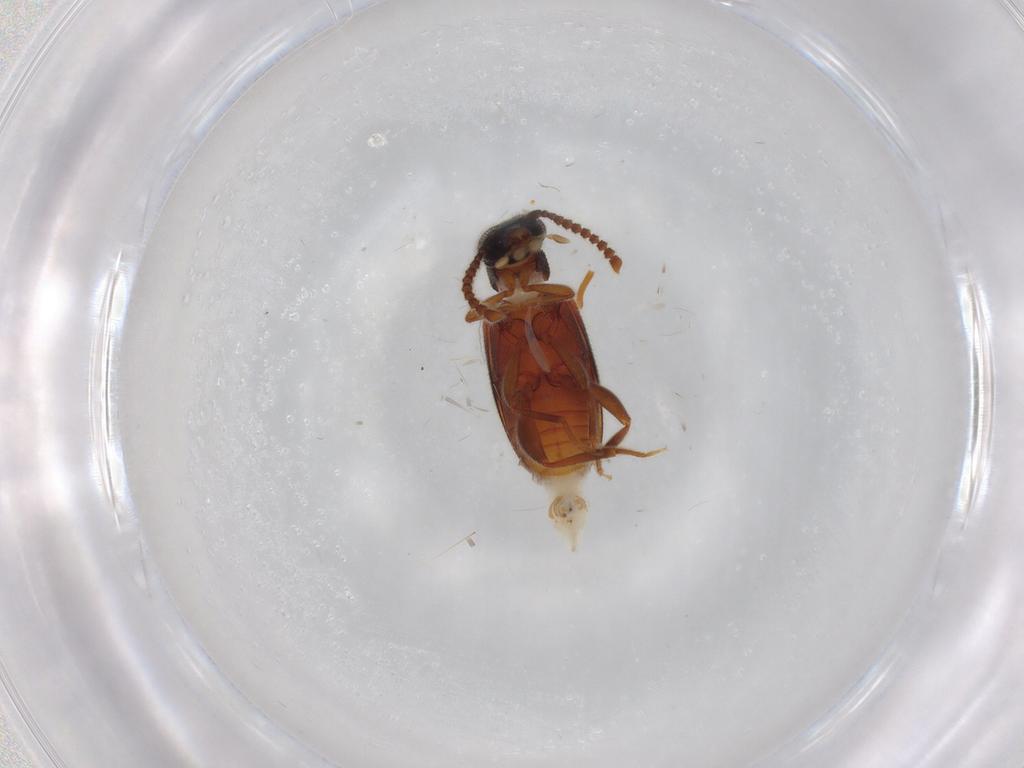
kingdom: Animalia
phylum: Arthropoda
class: Insecta
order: Coleoptera
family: Aderidae
